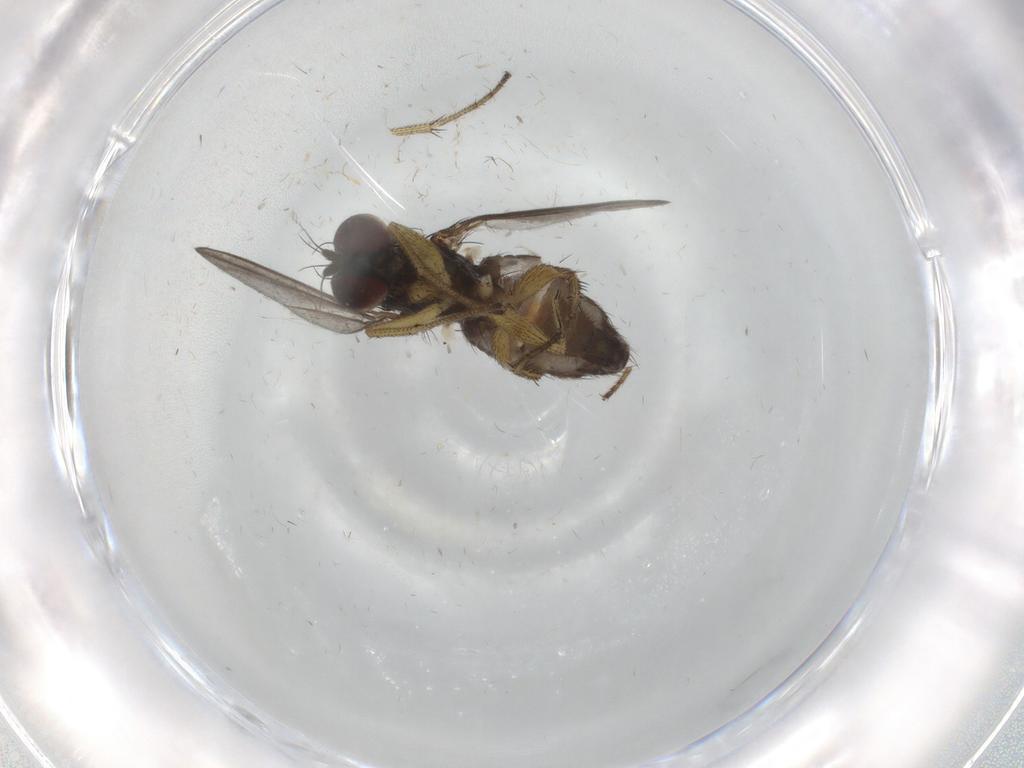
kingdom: Animalia
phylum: Arthropoda
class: Insecta
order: Diptera
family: Dolichopodidae
